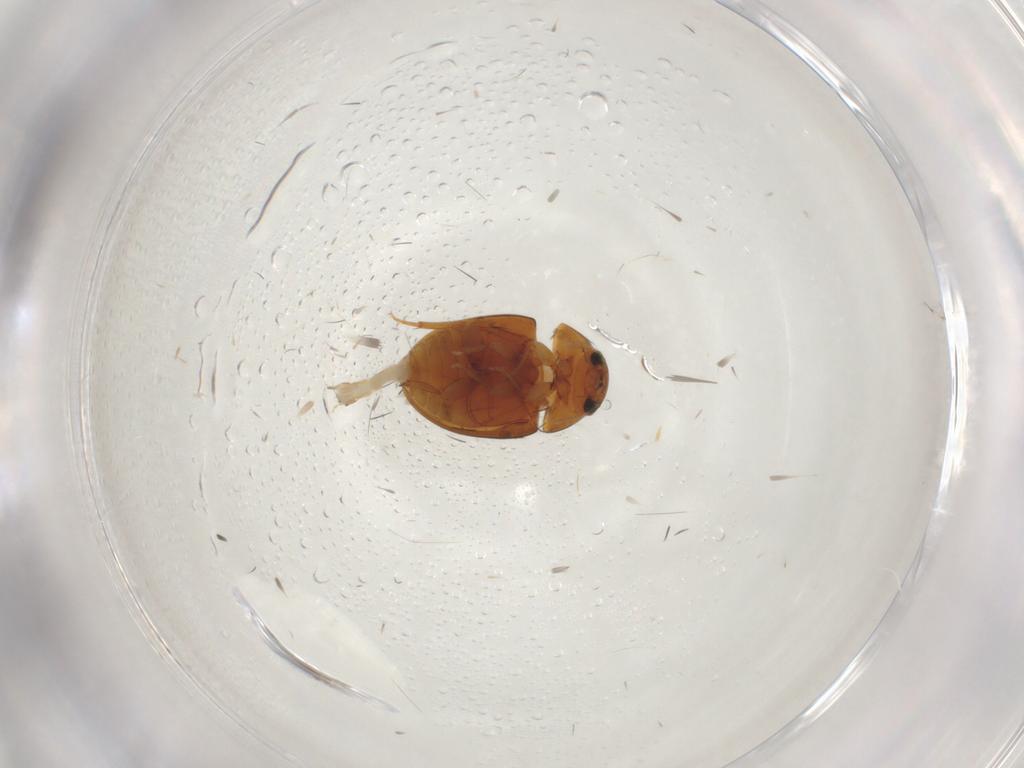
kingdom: Animalia
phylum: Arthropoda
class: Insecta
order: Coleoptera
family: Phalacridae
